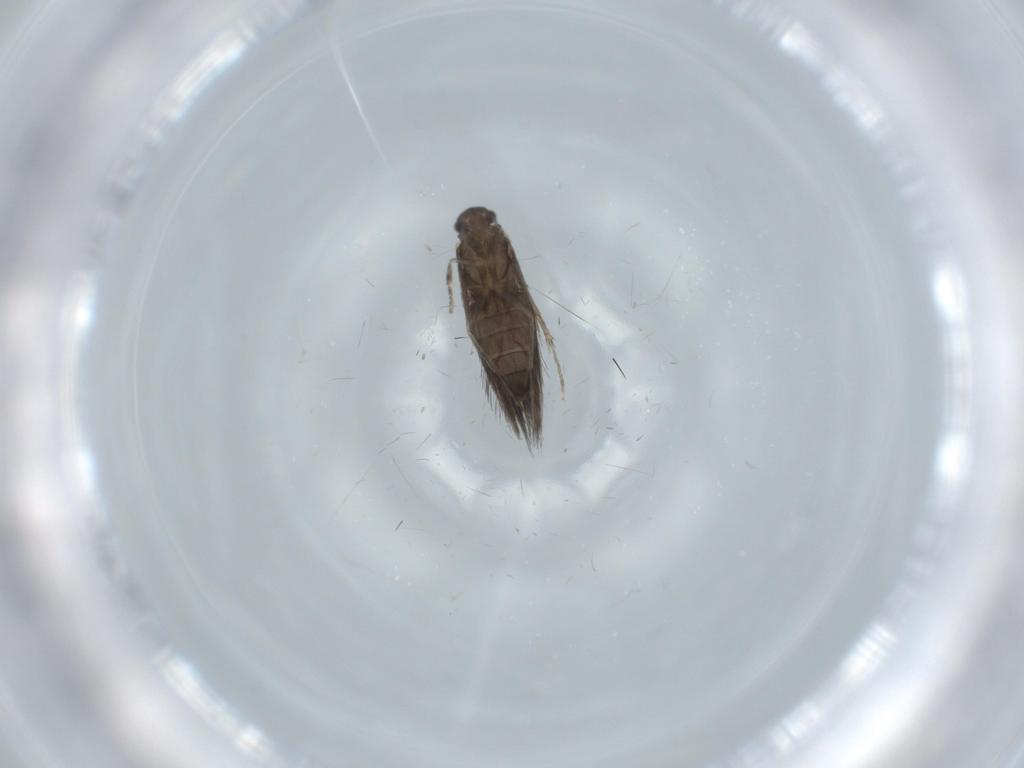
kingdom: Animalia
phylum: Arthropoda
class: Insecta
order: Trichoptera
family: Hydroptilidae
